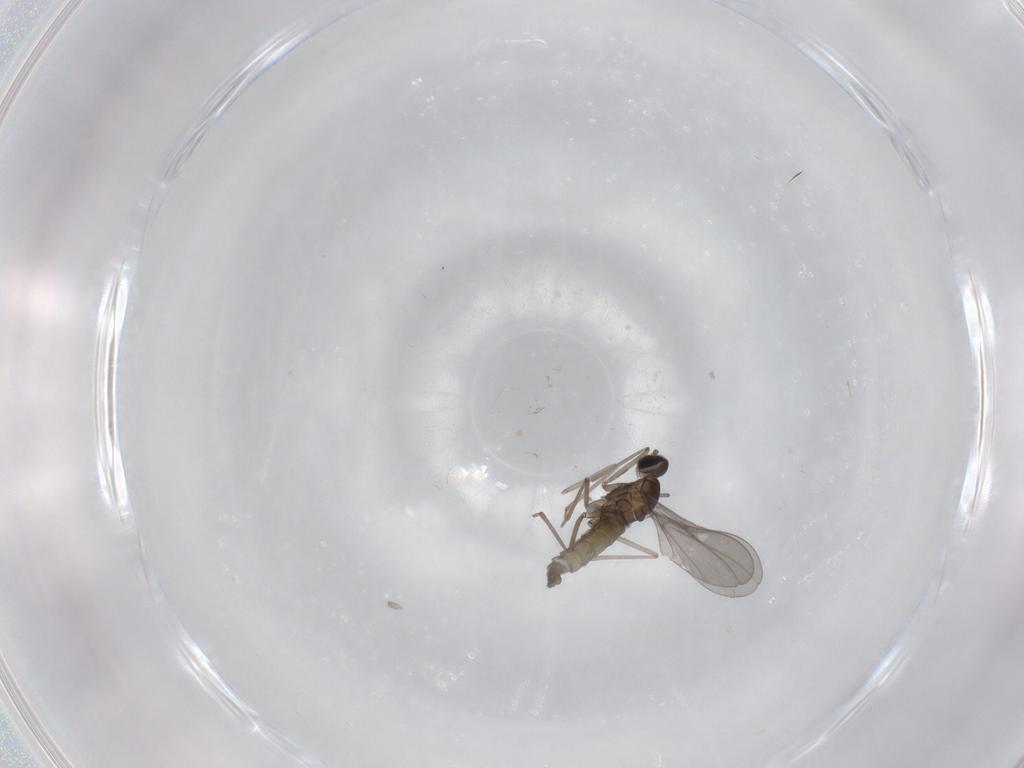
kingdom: Animalia
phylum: Arthropoda
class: Insecta
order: Diptera
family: Cecidomyiidae
